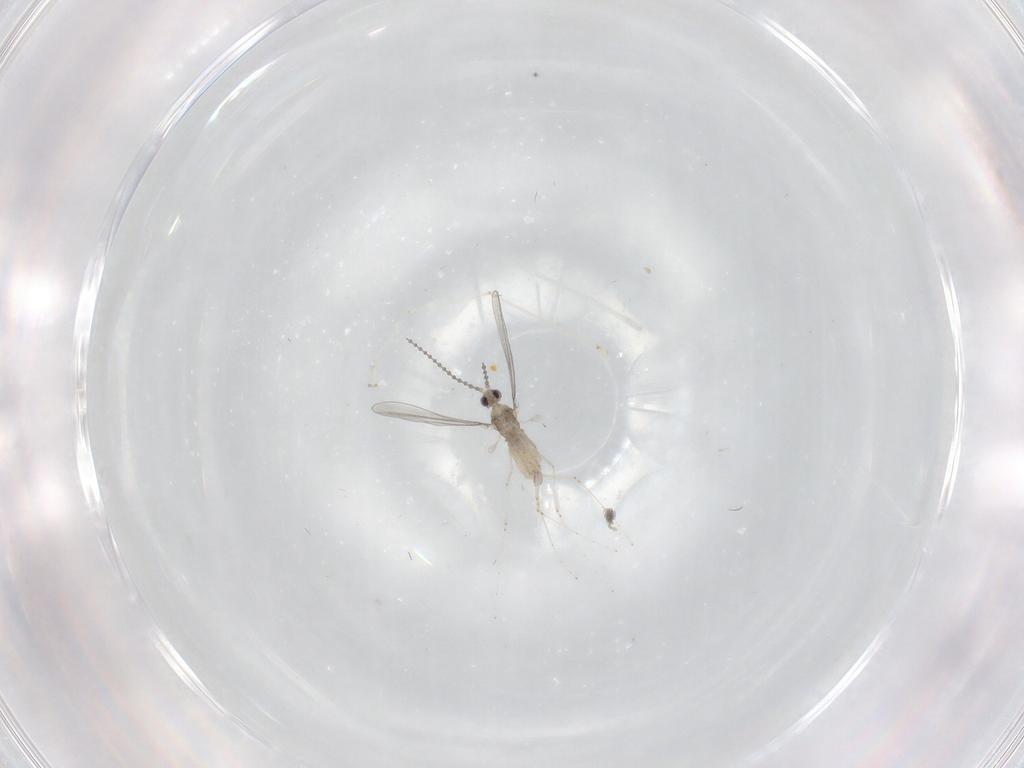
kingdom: Animalia
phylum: Arthropoda
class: Insecta
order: Diptera
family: Ceratopogonidae
